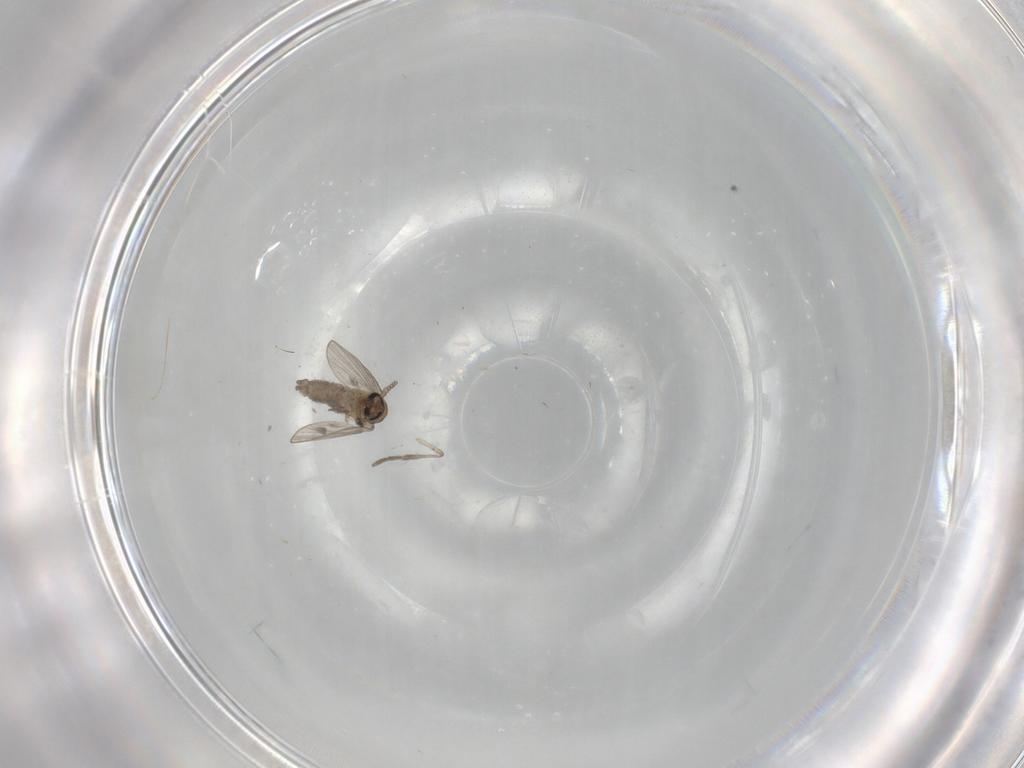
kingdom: Animalia
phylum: Arthropoda
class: Insecta
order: Diptera
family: Psychodidae
